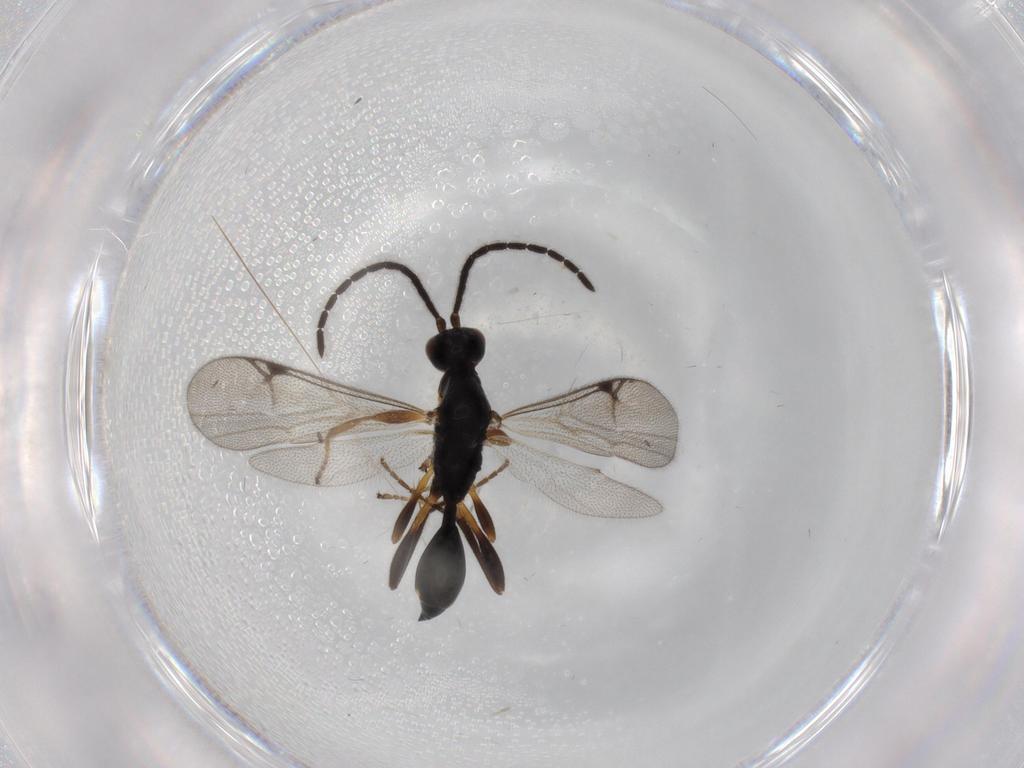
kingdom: Animalia
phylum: Arthropoda
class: Insecta
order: Hymenoptera
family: Proctotrupidae
